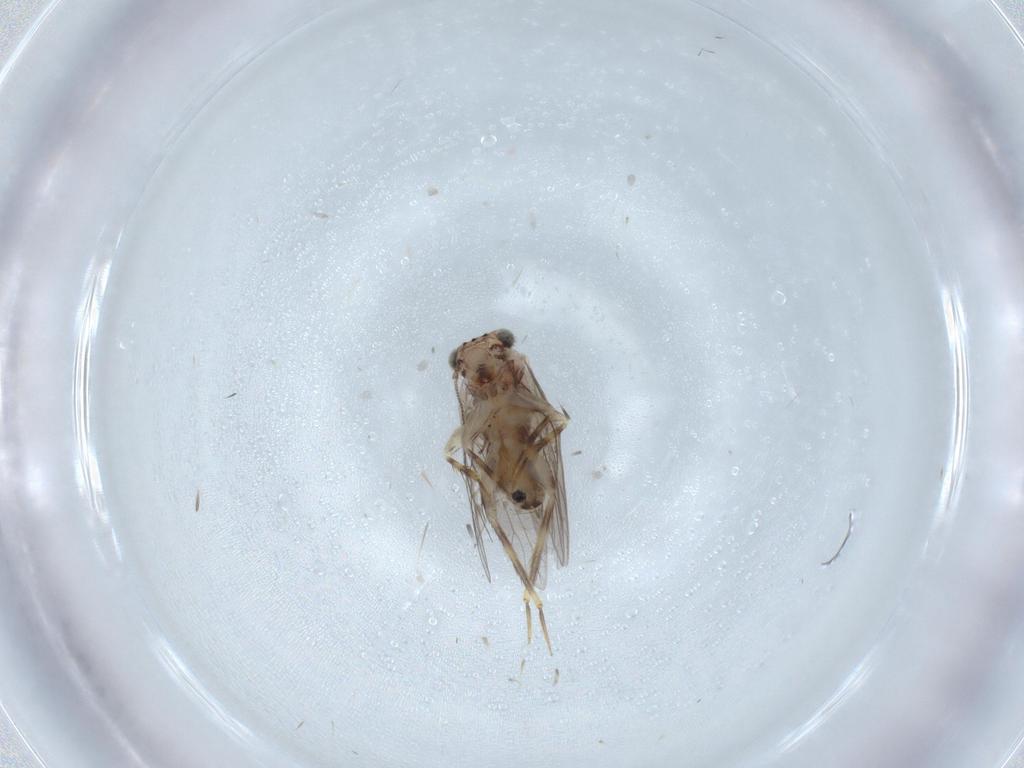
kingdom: Animalia
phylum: Arthropoda
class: Insecta
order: Psocodea
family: Lepidopsocidae
